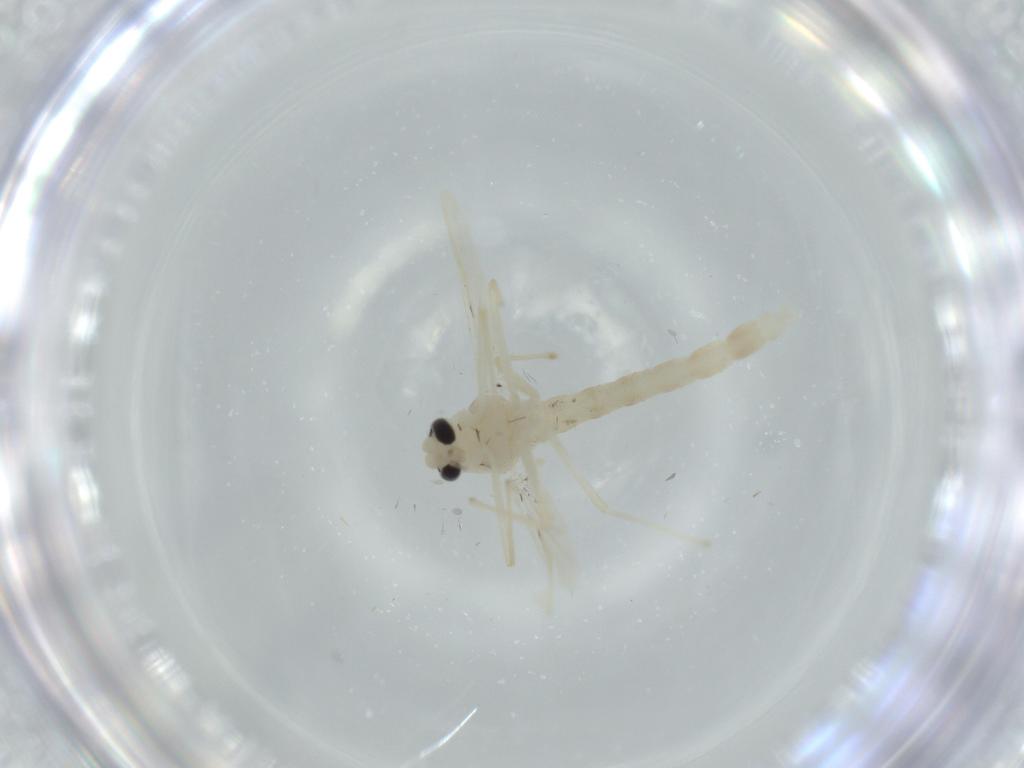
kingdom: Animalia
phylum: Arthropoda
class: Insecta
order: Diptera
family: Chironomidae
